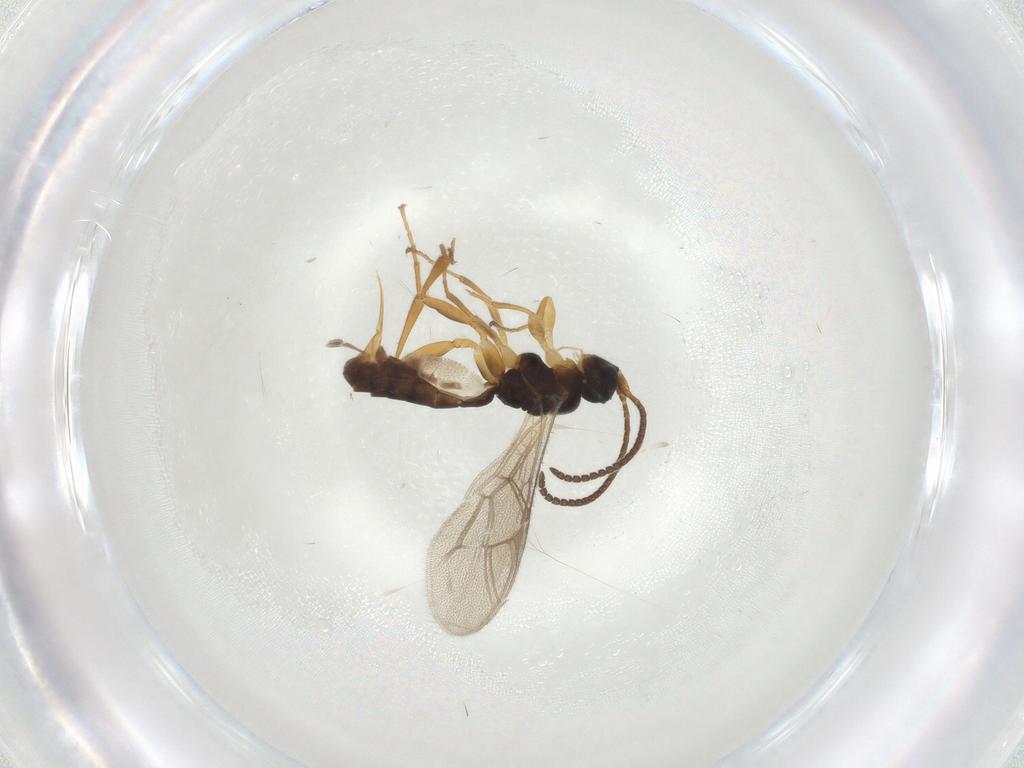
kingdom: Animalia
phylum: Arthropoda
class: Insecta
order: Hymenoptera
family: Ichneumonidae
